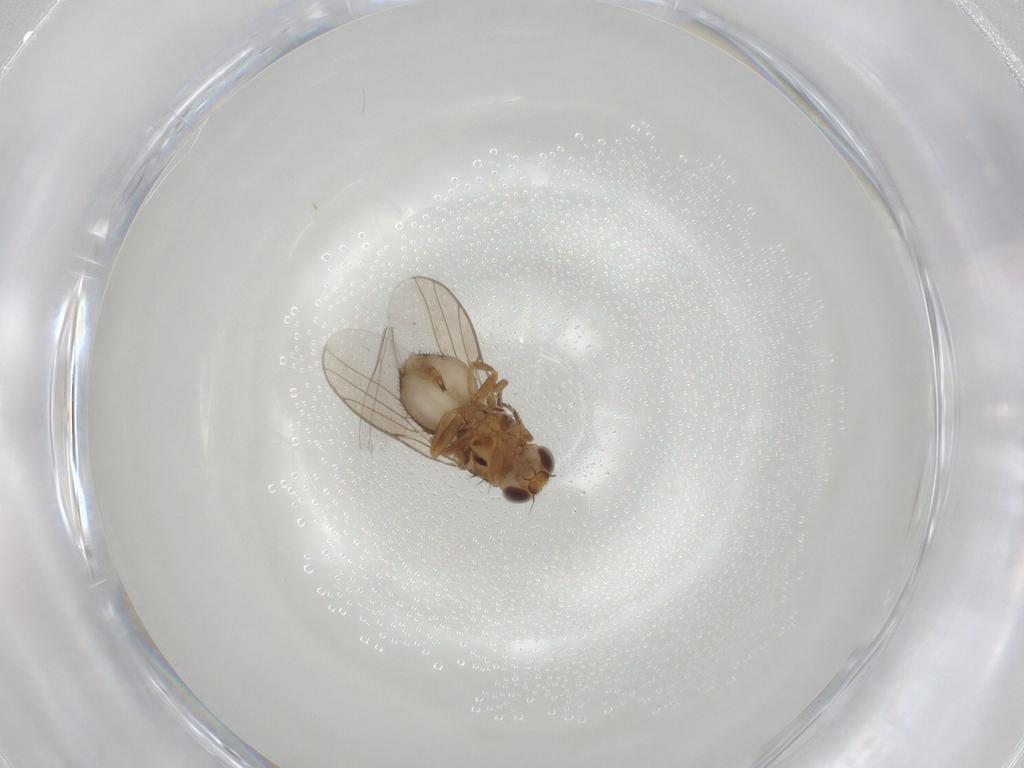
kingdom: Animalia
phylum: Arthropoda
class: Insecta
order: Diptera
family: Chloropidae
